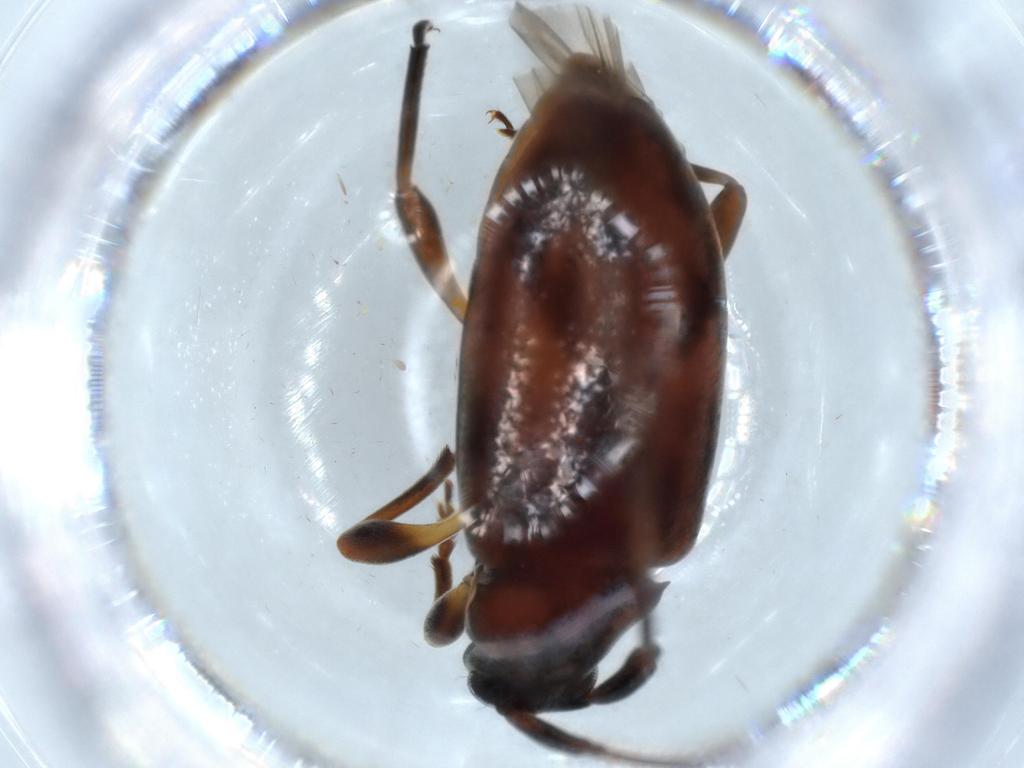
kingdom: Animalia
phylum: Arthropoda
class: Insecta
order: Coleoptera
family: Cerambycidae
